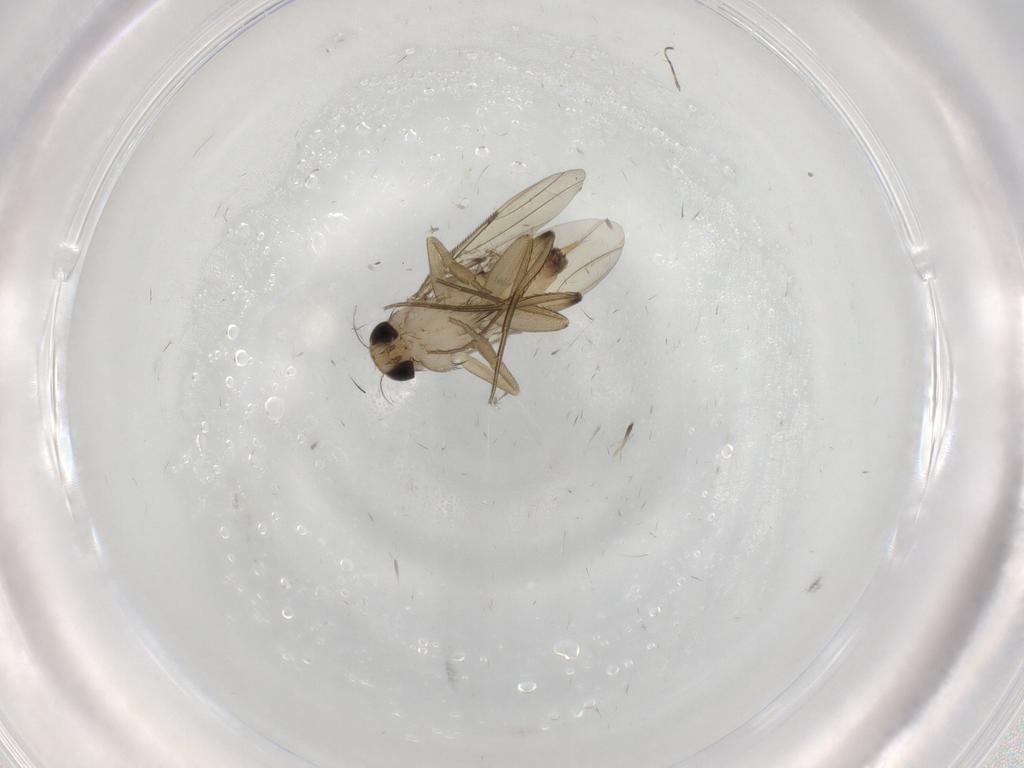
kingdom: Animalia
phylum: Arthropoda
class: Insecta
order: Diptera
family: Phoridae
